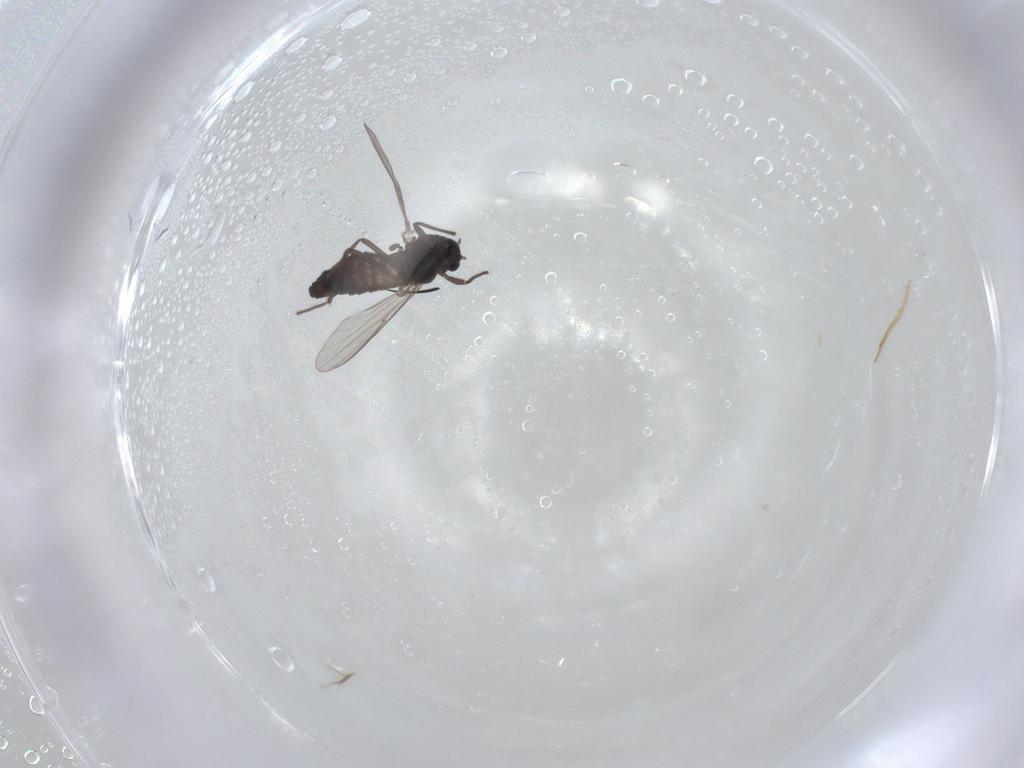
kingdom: Animalia
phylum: Arthropoda
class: Insecta
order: Diptera
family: Chironomidae
